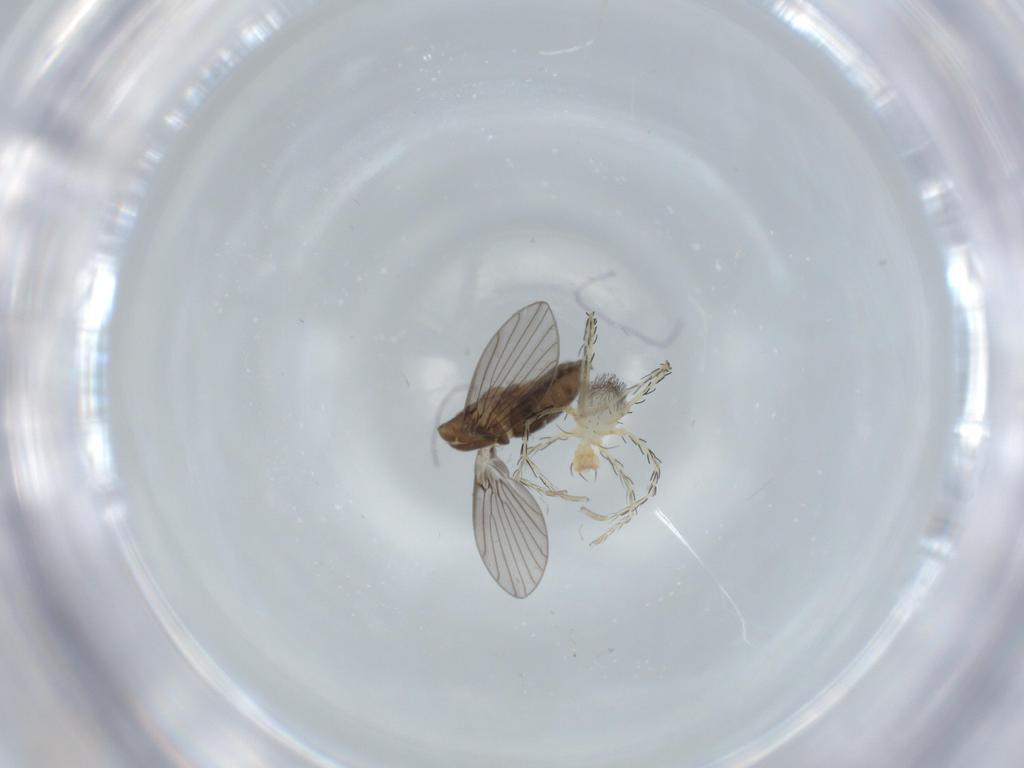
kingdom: Animalia
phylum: Arthropoda
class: Arachnida
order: Trombidiformes
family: Erythraeidae
